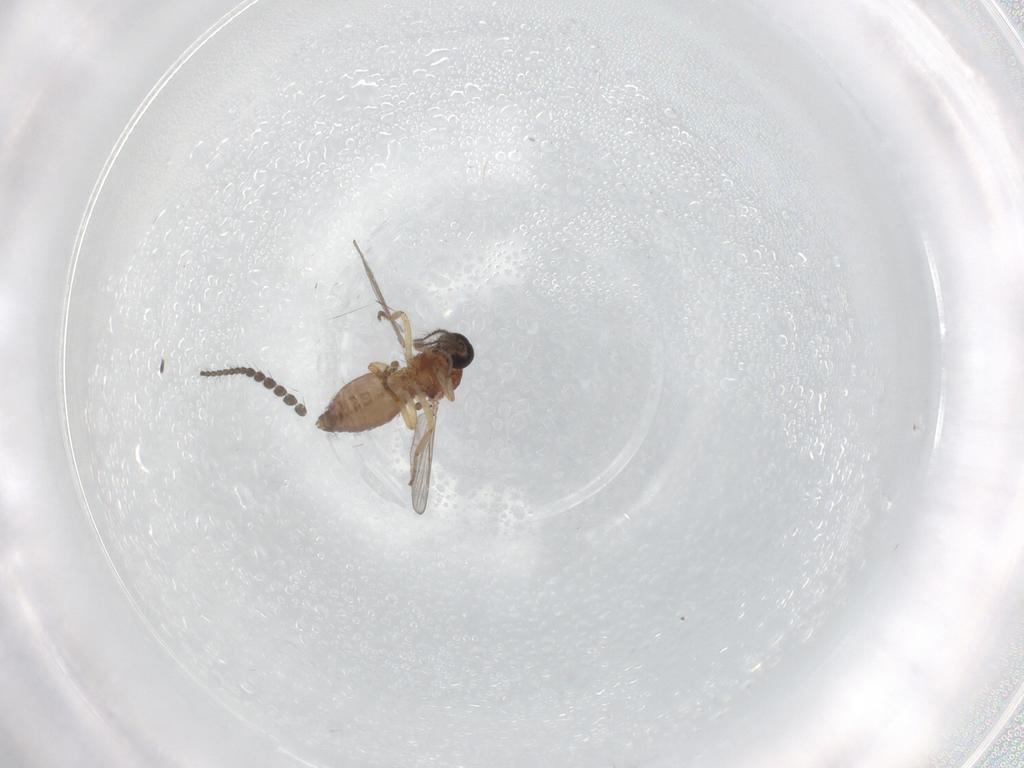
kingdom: Animalia
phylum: Arthropoda
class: Insecta
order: Diptera
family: Limoniidae
